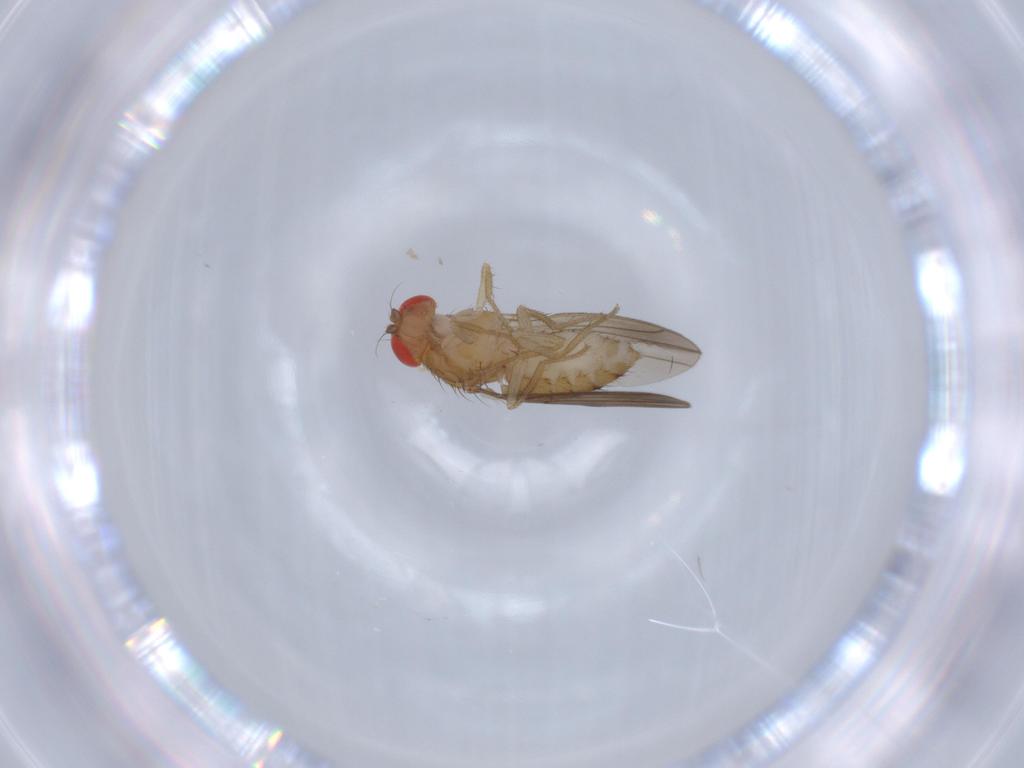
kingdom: Animalia
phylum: Arthropoda
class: Insecta
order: Diptera
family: Drosophilidae
